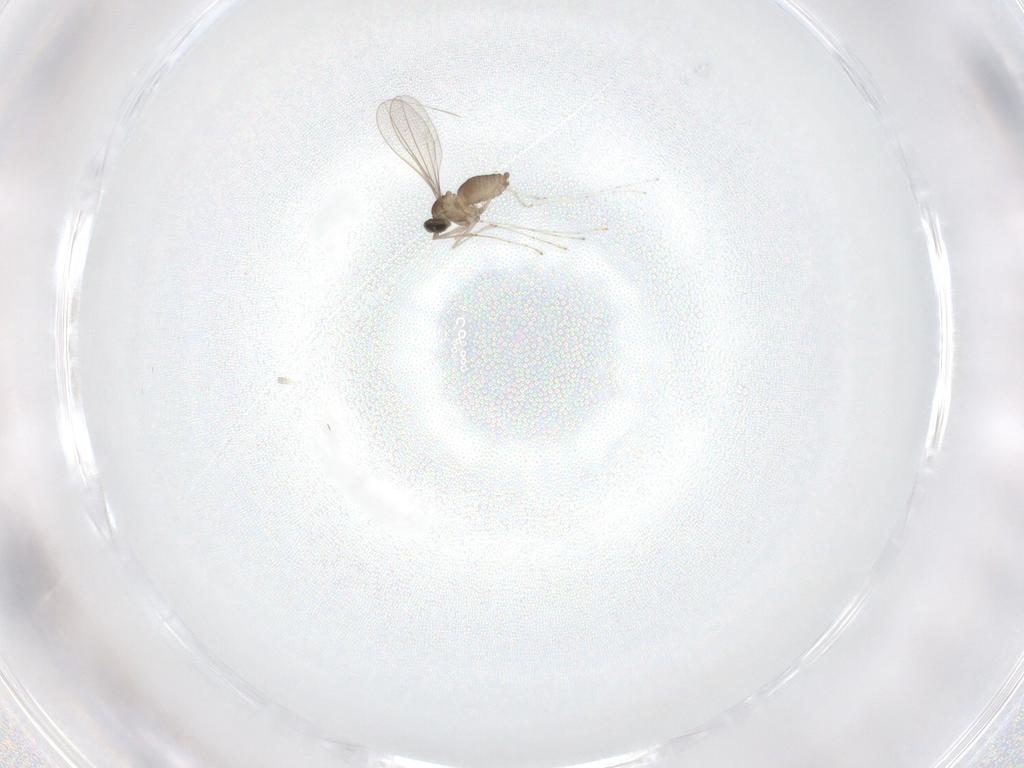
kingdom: Animalia
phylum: Arthropoda
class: Insecta
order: Diptera
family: Cecidomyiidae
